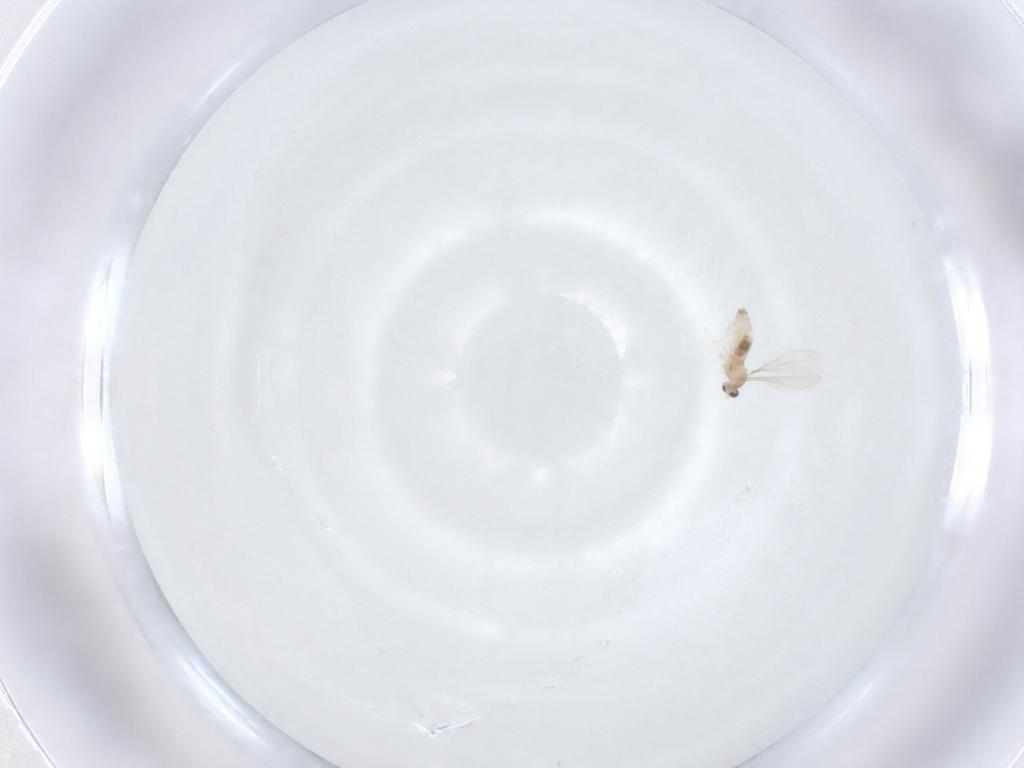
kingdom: Animalia
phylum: Arthropoda
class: Insecta
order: Diptera
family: Cecidomyiidae
